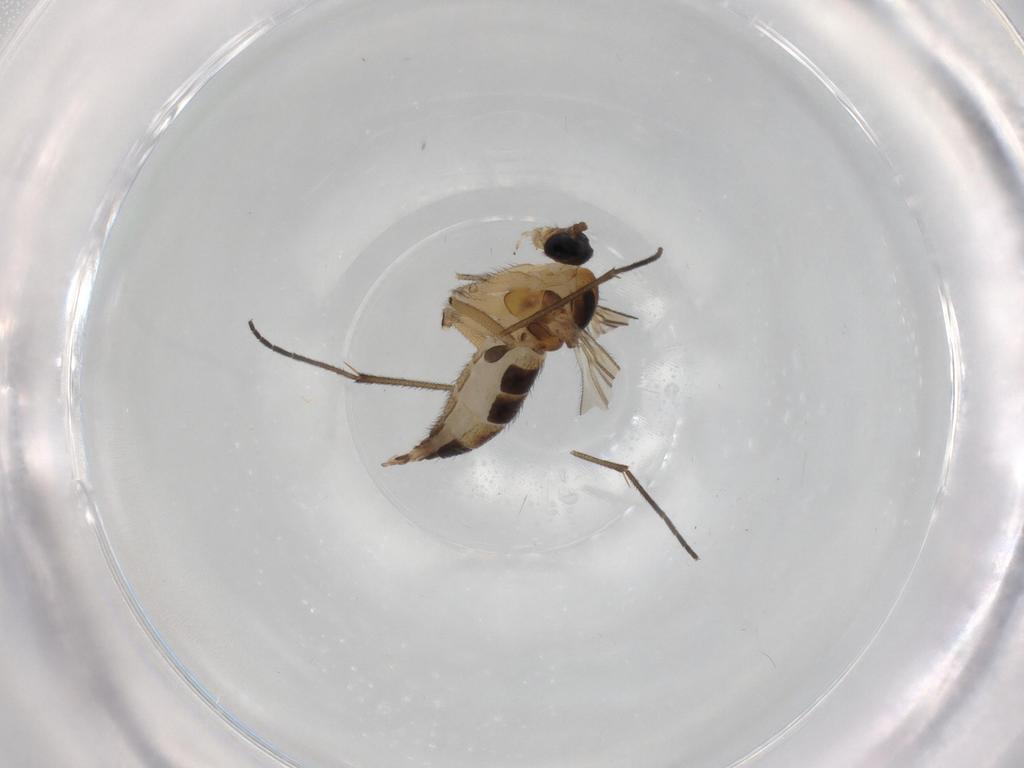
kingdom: Animalia
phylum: Arthropoda
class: Insecta
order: Diptera
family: Sciaridae
